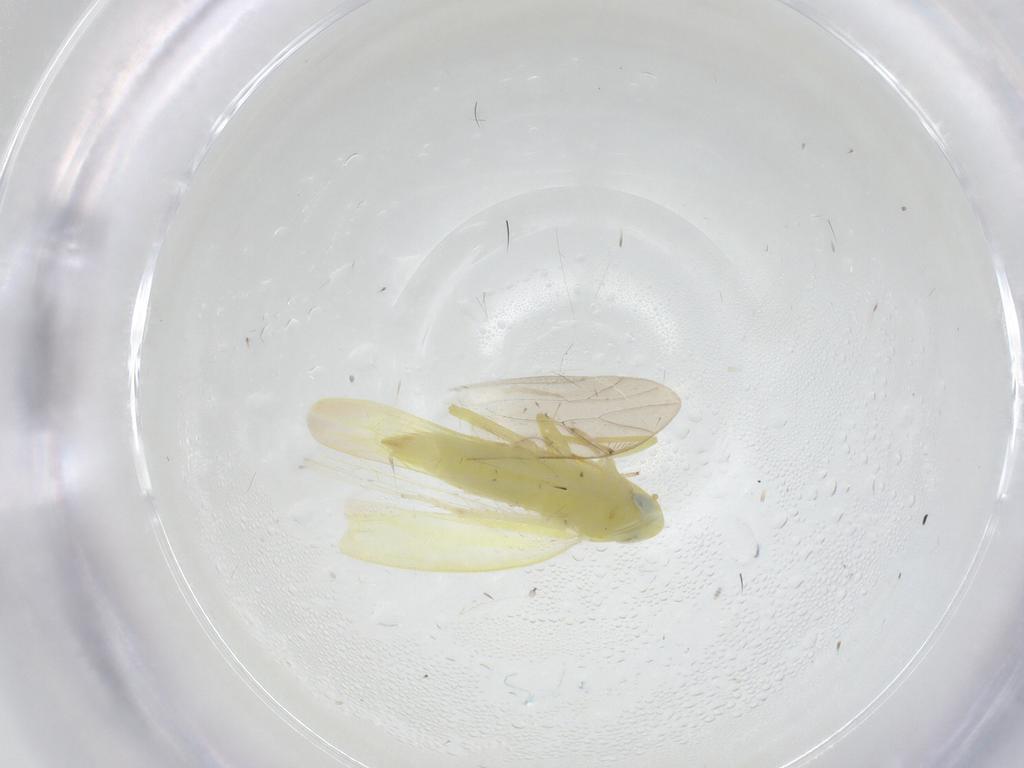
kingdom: Animalia
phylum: Arthropoda
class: Insecta
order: Hemiptera
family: Cicadellidae
